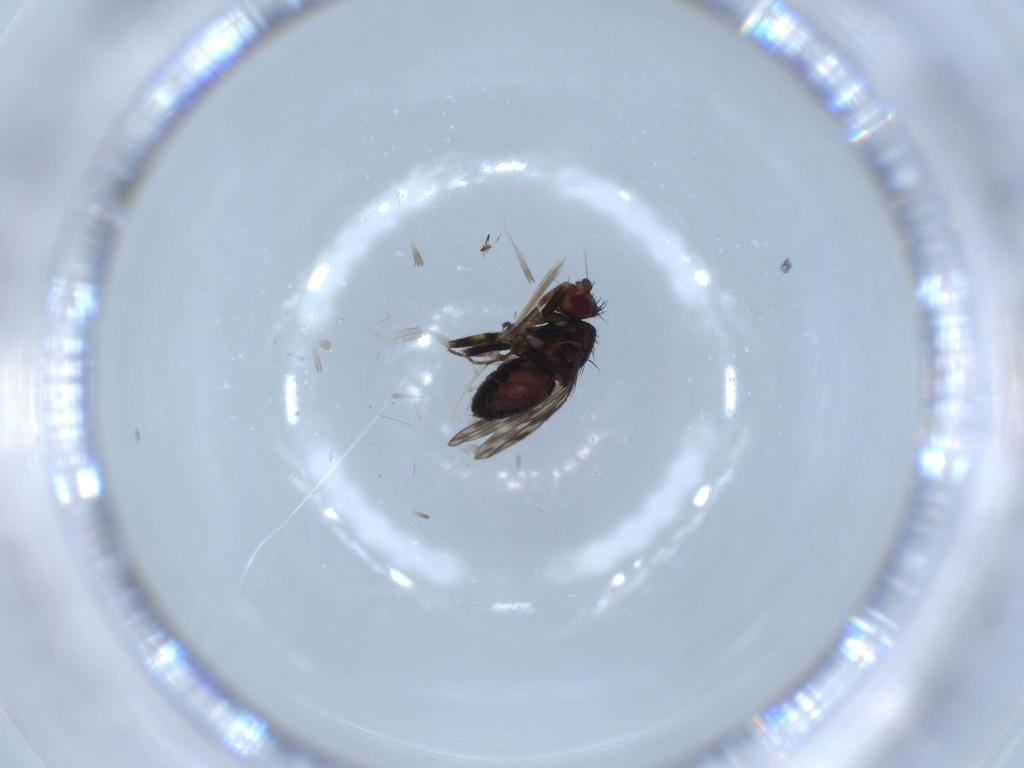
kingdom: Animalia
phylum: Arthropoda
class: Insecta
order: Diptera
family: Sphaeroceridae
